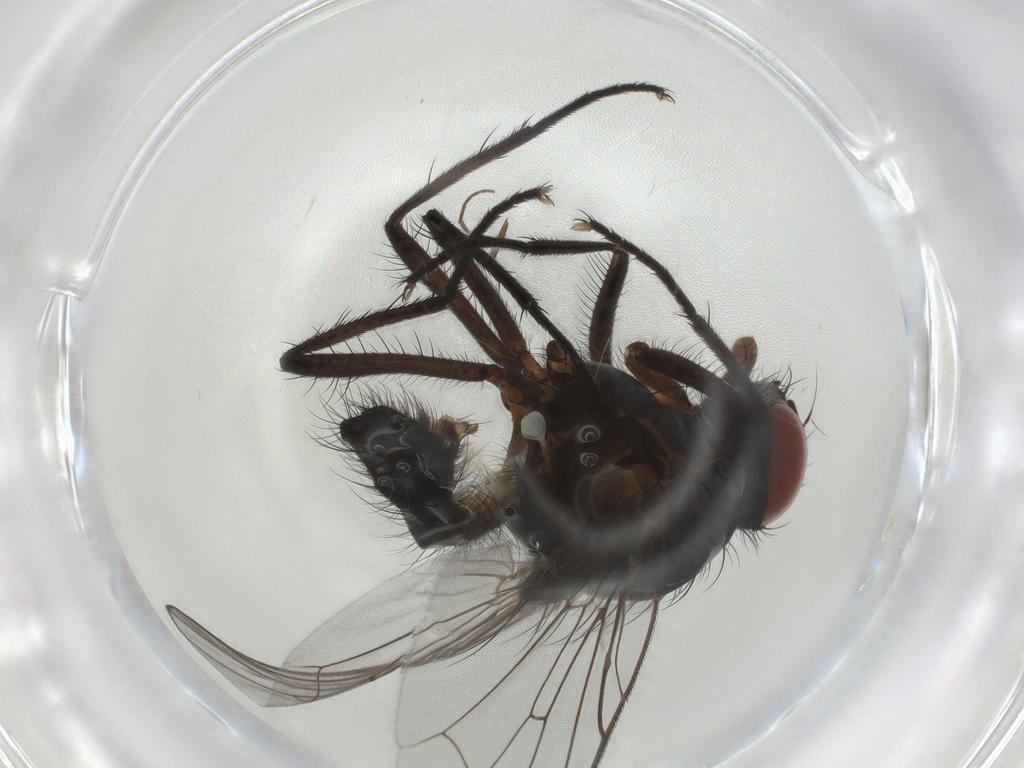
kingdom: Animalia
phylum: Arthropoda
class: Insecta
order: Diptera
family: Anthomyiidae
